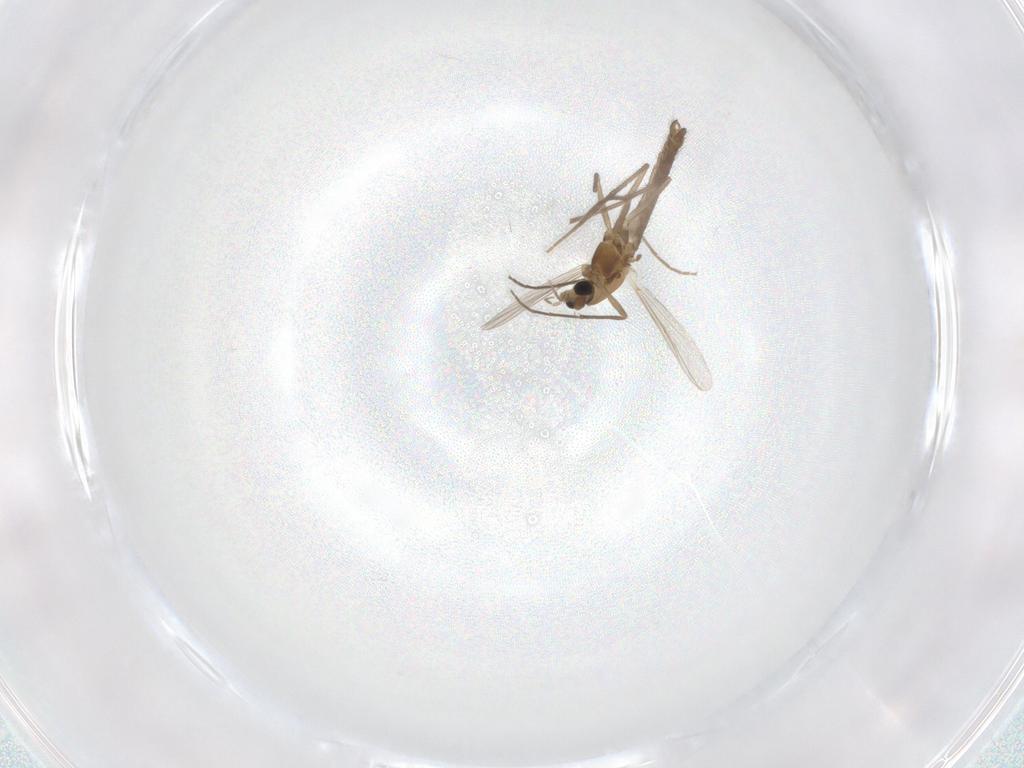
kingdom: Animalia
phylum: Arthropoda
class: Insecta
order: Diptera
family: Chironomidae
